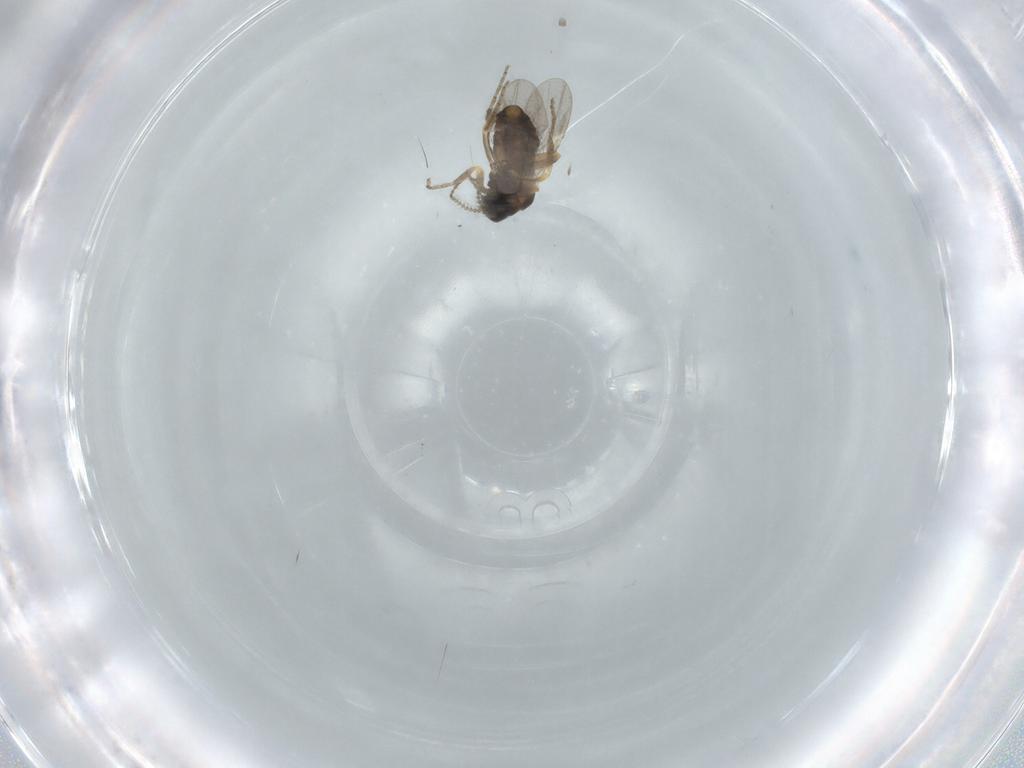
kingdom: Animalia
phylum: Arthropoda
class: Insecta
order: Diptera
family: Ceratopogonidae
